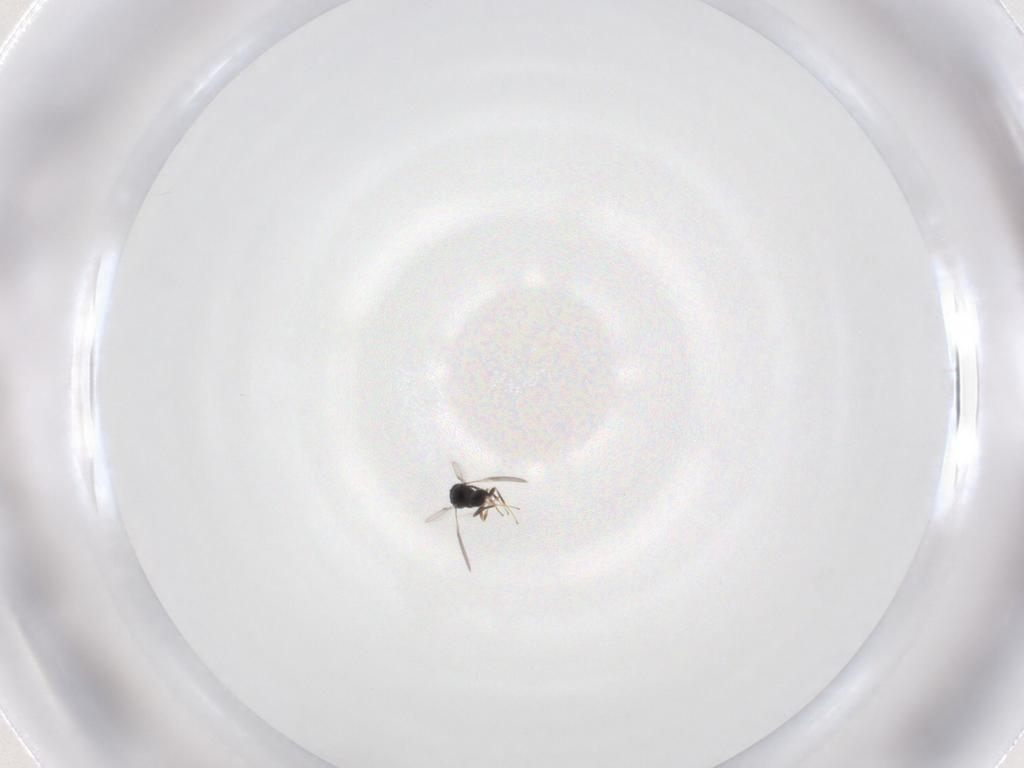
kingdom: Animalia
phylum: Arthropoda
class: Insecta
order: Hymenoptera
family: Scelionidae
